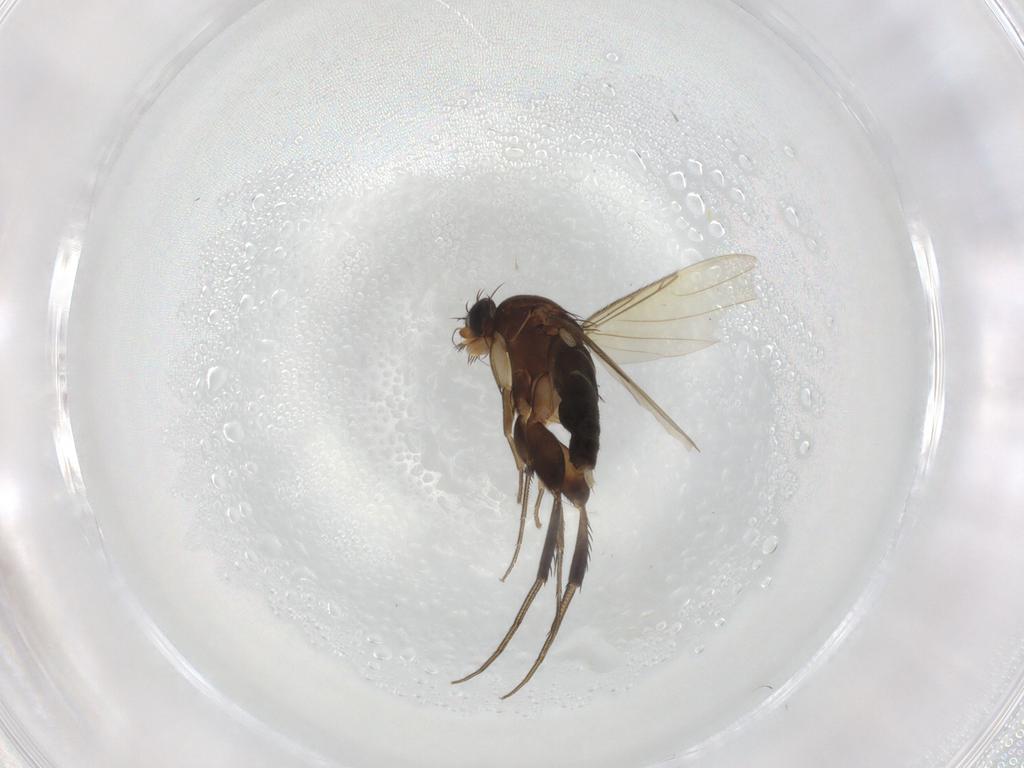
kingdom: Animalia
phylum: Arthropoda
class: Insecta
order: Diptera
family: Phoridae
